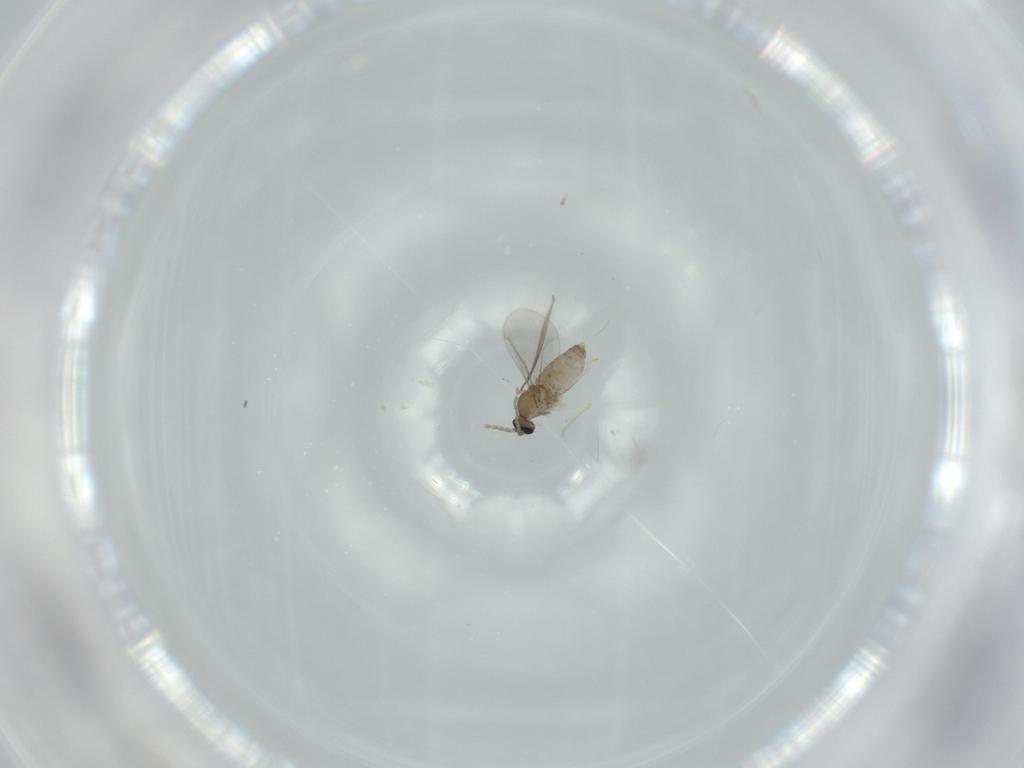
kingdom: Animalia
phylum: Arthropoda
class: Insecta
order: Diptera
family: Cecidomyiidae
